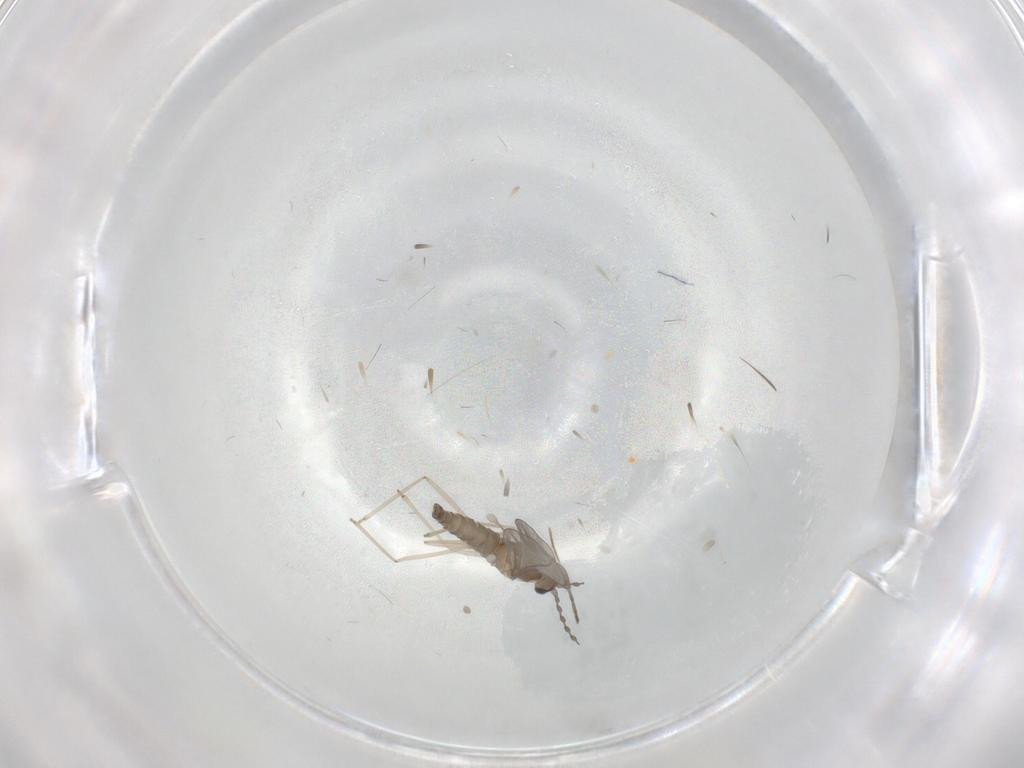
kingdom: Animalia
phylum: Arthropoda
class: Insecta
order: Diptera
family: Cecidomyiidae
